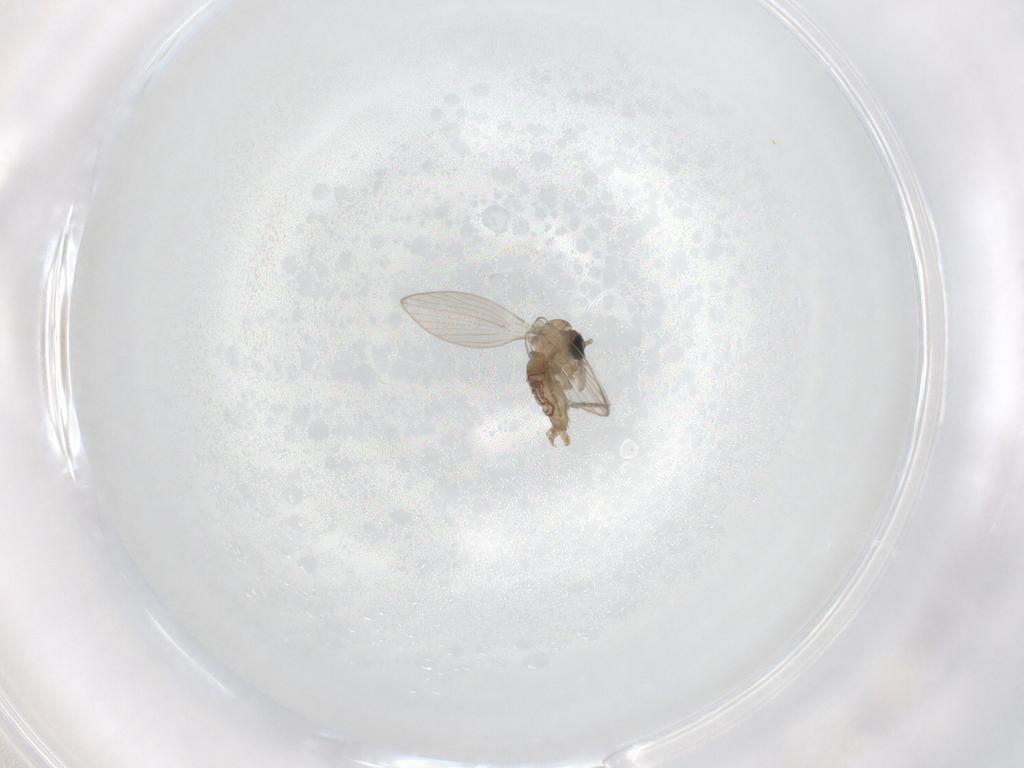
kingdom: Animalia
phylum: Arthropoda
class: Insecta
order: Diptera
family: Psychodidae
